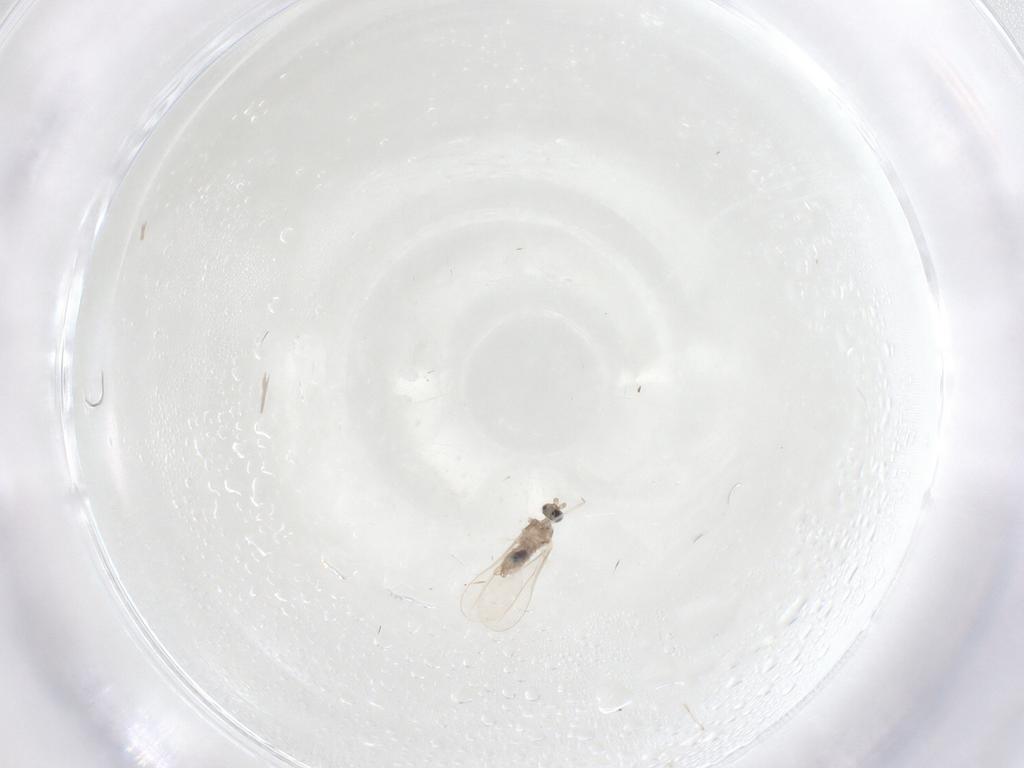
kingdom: Animalia
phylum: Arthropoda
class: Insecta
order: Diptera
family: Cecidomyiidae
